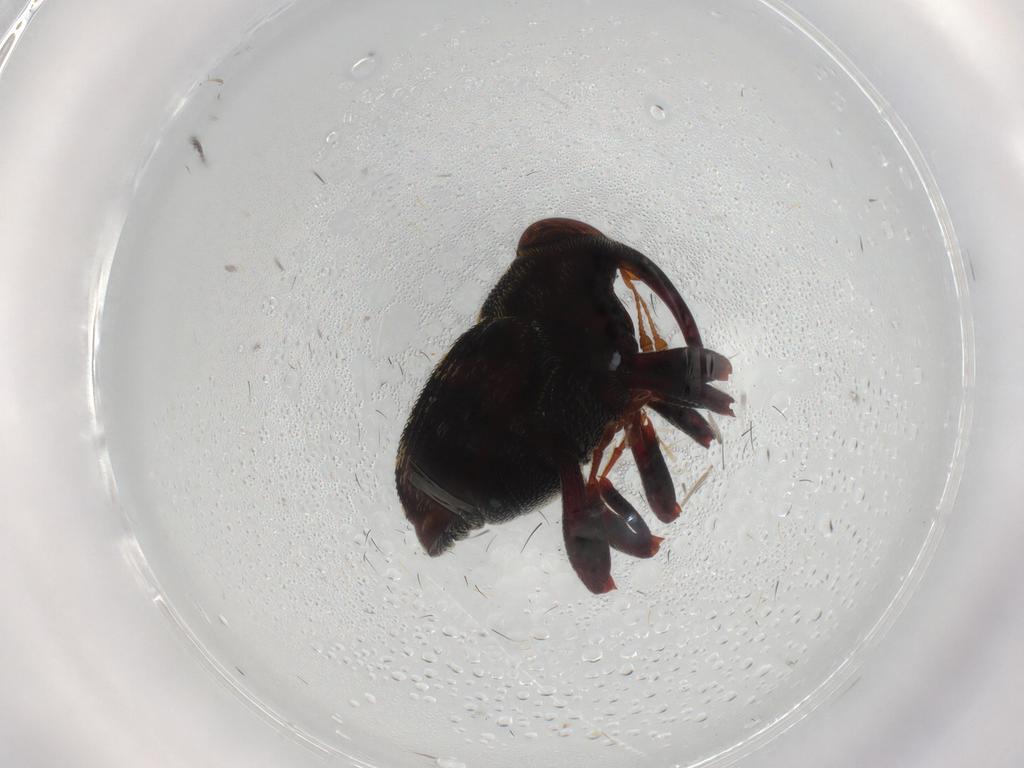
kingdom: Animalia
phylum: Arthropoda
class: Insecta
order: Coleoptera
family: Curculionidae
